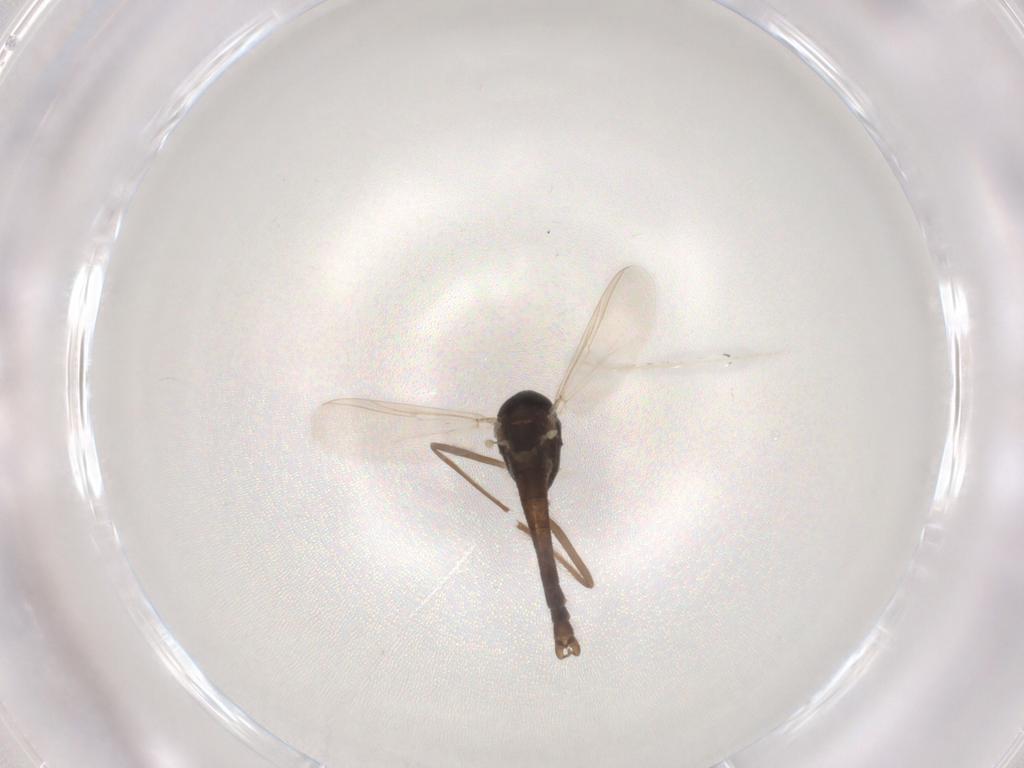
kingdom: Animalia
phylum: Arthropoda
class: Insecta
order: Diptera
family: Chironomidae
